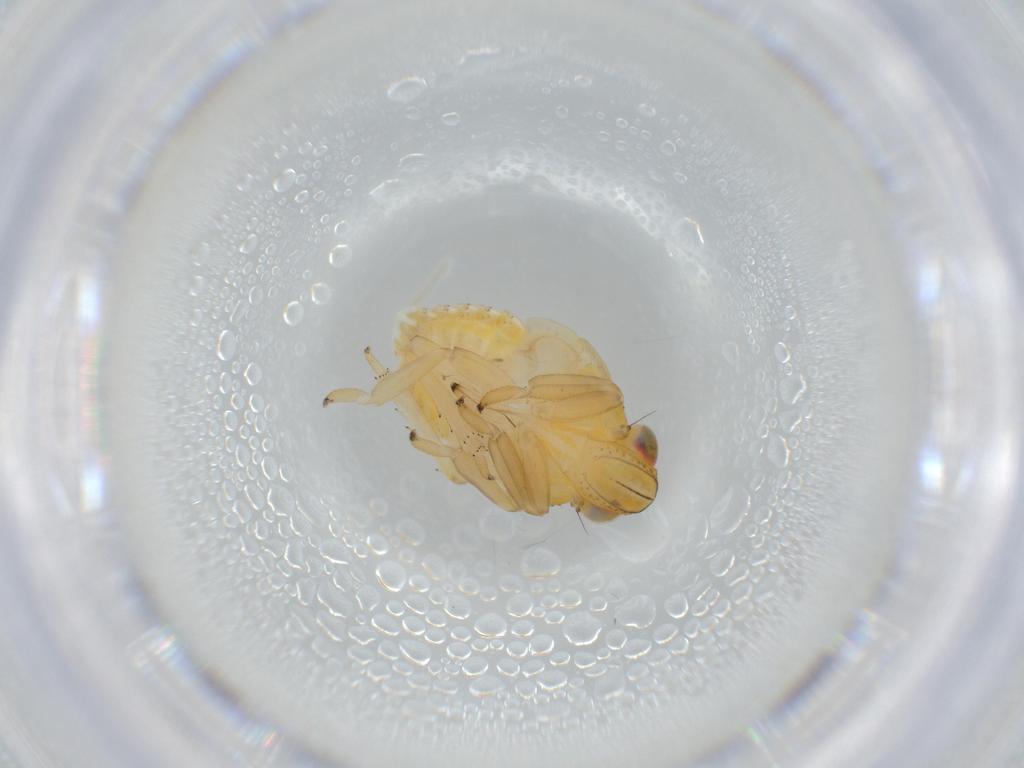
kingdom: Animalia
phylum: Arthropoda
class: Insecta
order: Hemiptera
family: Issidae
